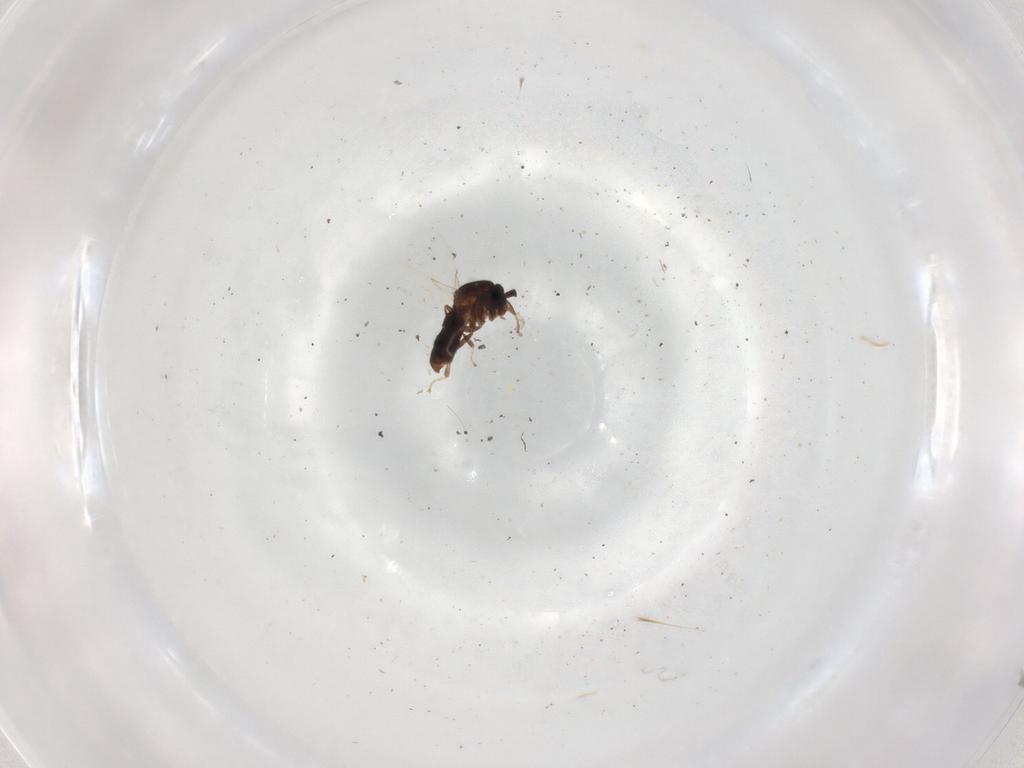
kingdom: Animalia
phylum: Arthropoda
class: Insecta
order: Diptera
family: Scatopsidae
